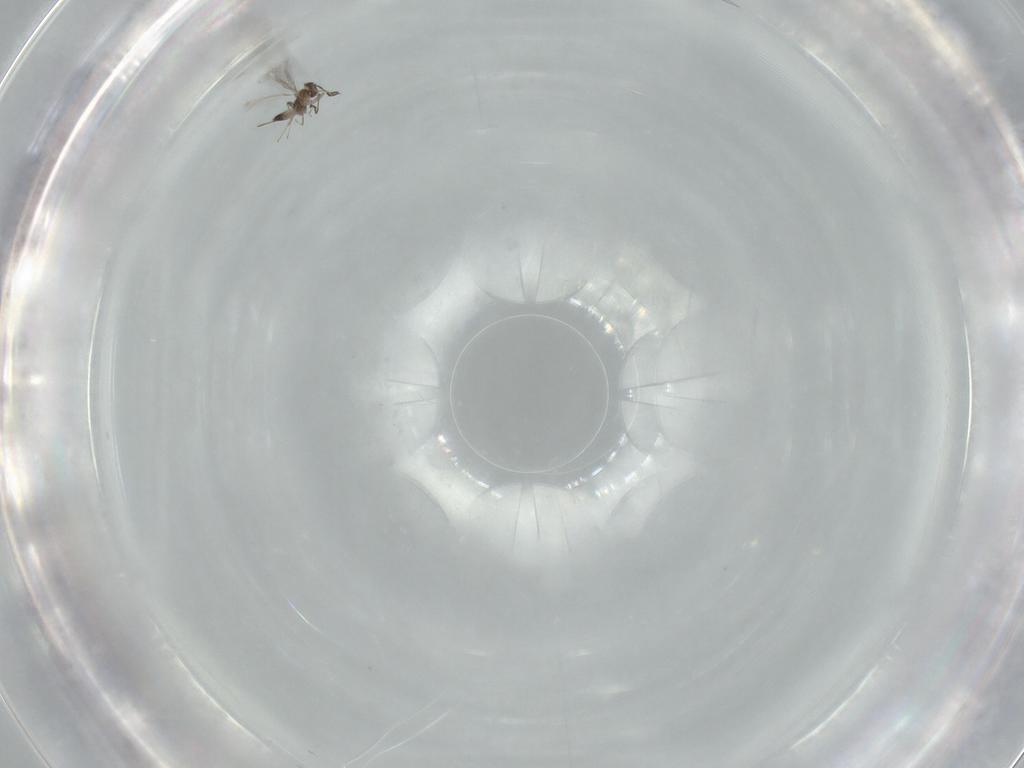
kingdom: Animalia
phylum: Arthropoda
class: Insecta
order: Hymenoptera
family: Mymaridae
